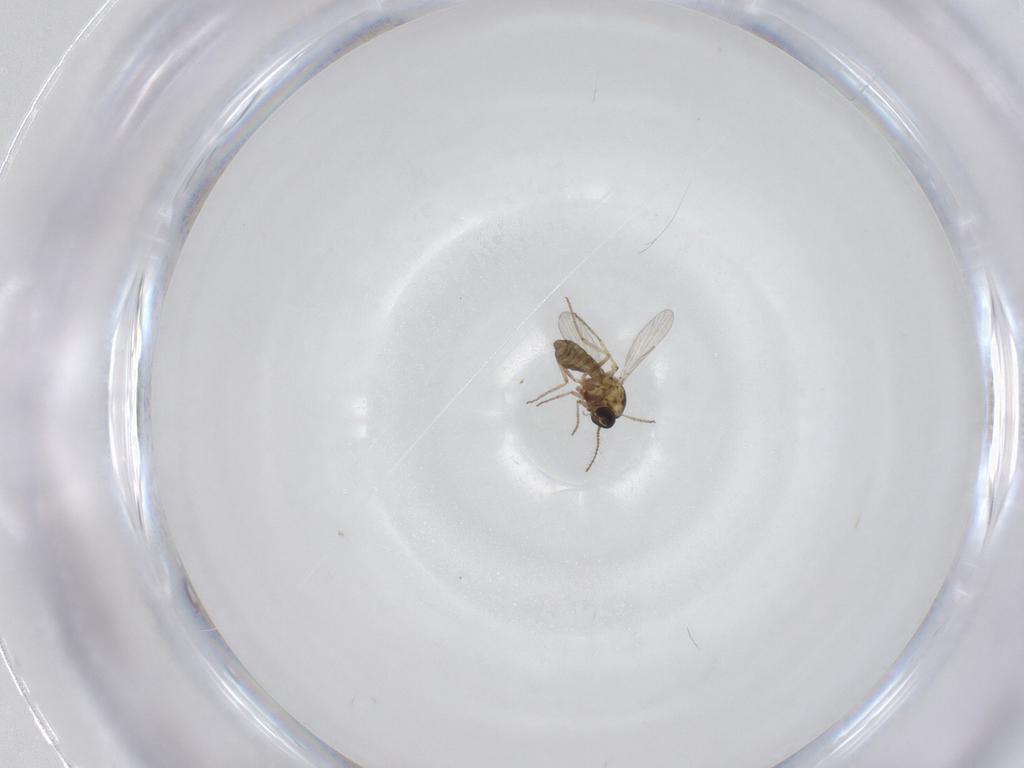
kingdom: Animalia
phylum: Arthropoda
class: Insecta
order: Diptera
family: Ceratopogonidae
